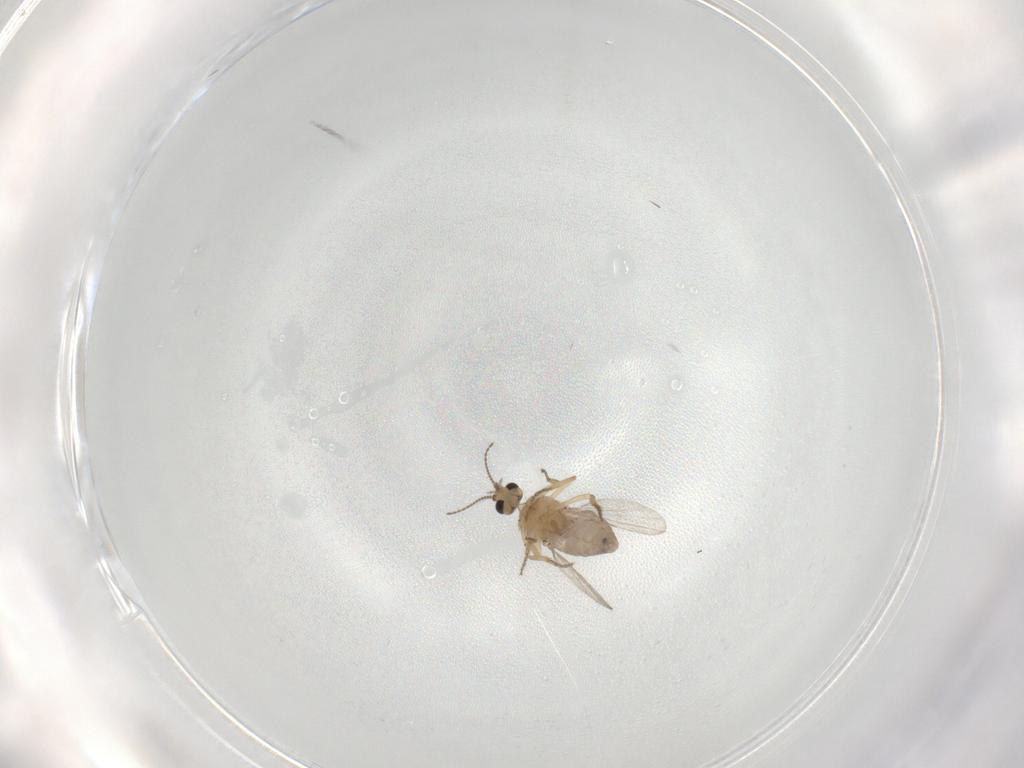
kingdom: Animalia
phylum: Arthropoda
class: Insecta
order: Diptera
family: Ceratopogonidae
